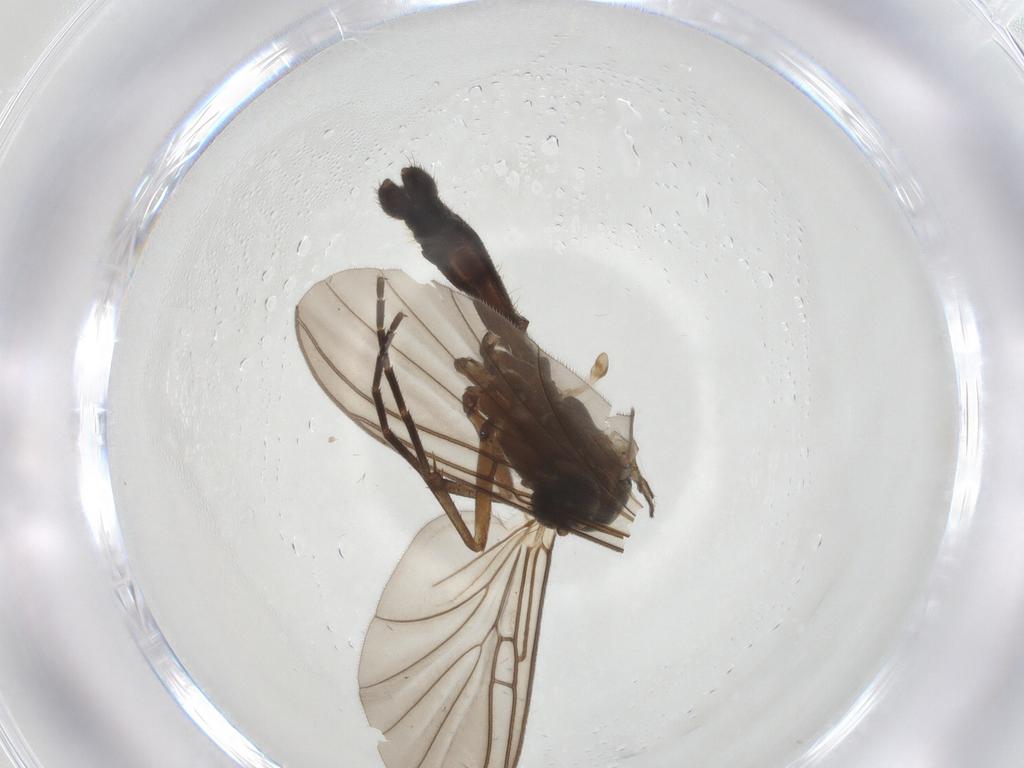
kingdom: Animalia
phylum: Arthropoda
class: Insecta
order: Diptera
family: Mycetophilidae
